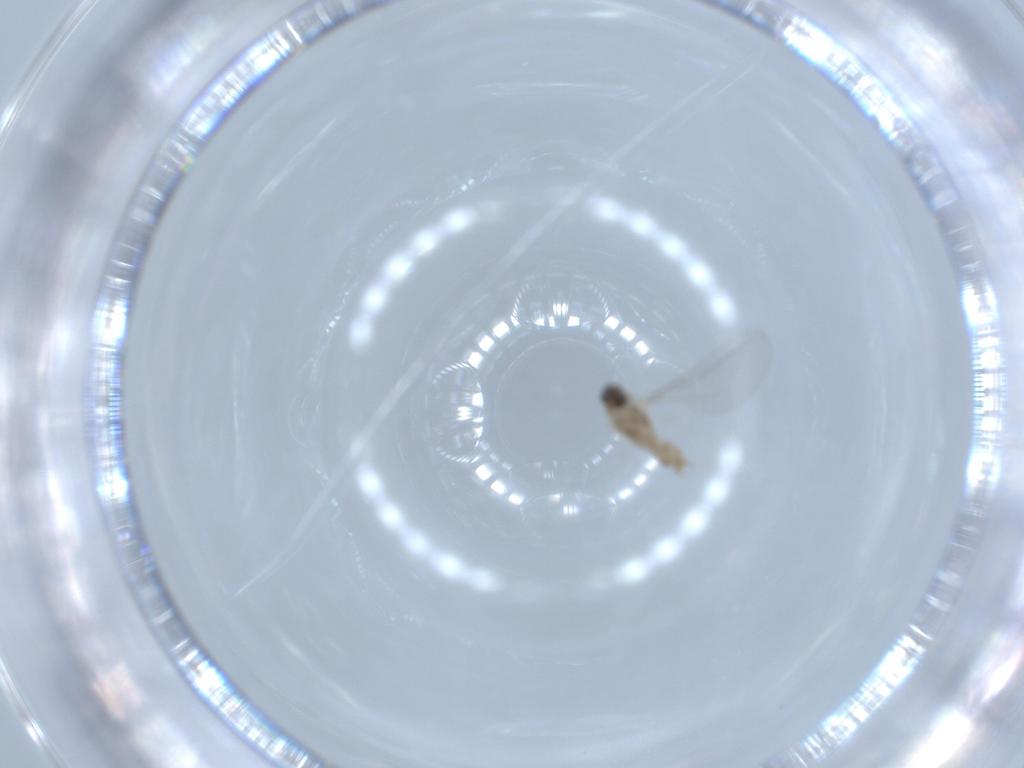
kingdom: Animalia
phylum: Arthropoda
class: Insecta
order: Diptera
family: Cecidomyiidae
